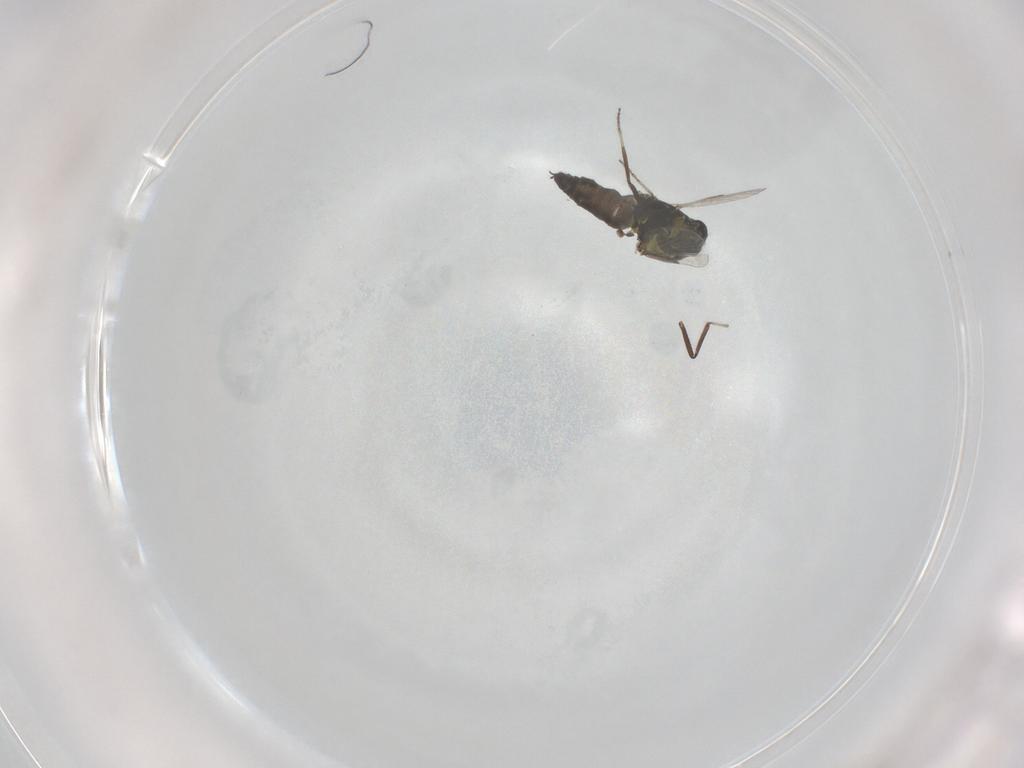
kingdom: Animalia
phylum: Arthropoda
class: Insecta
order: Diptera
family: Ceratopogonidae
